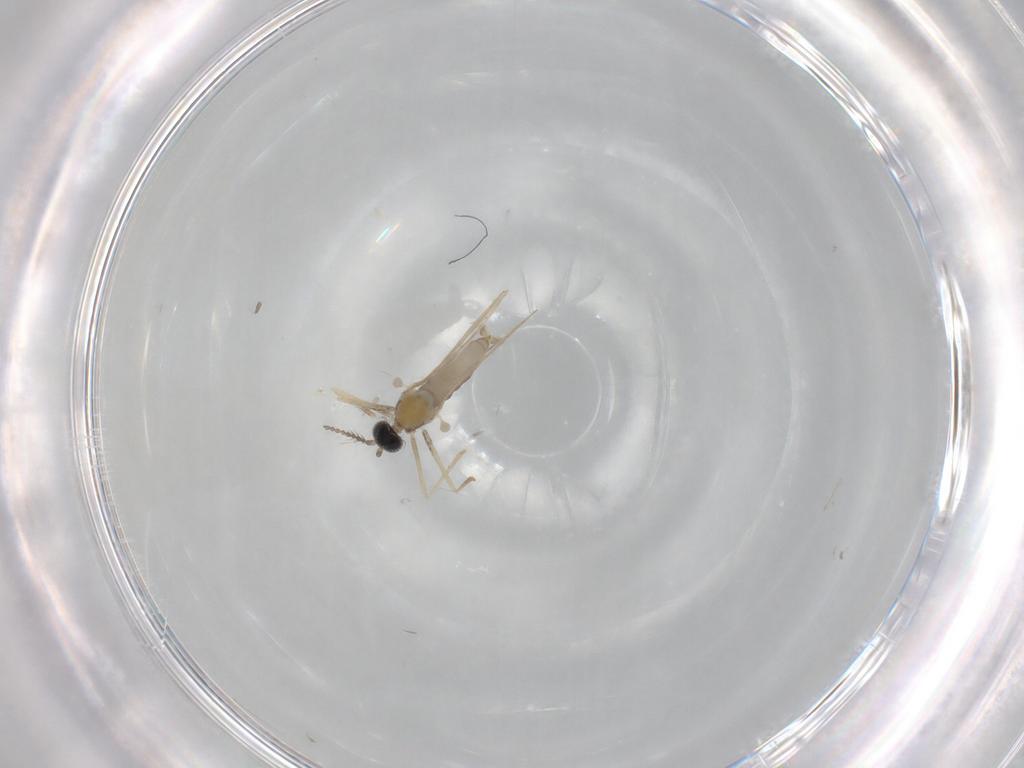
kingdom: Animalia
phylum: Arthropoda
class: Insecta
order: Diptera
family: Cecidomyiidae
